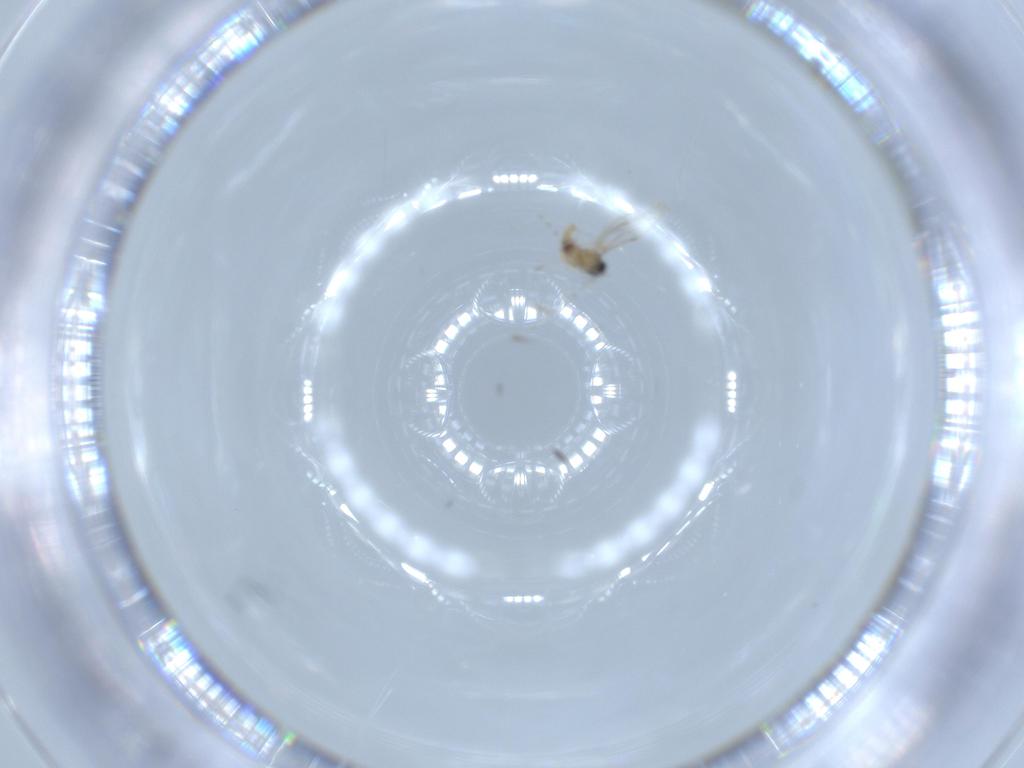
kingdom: Animalia
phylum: Arthropoda
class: Insecta
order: Diptera
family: Cecidomyiidae
